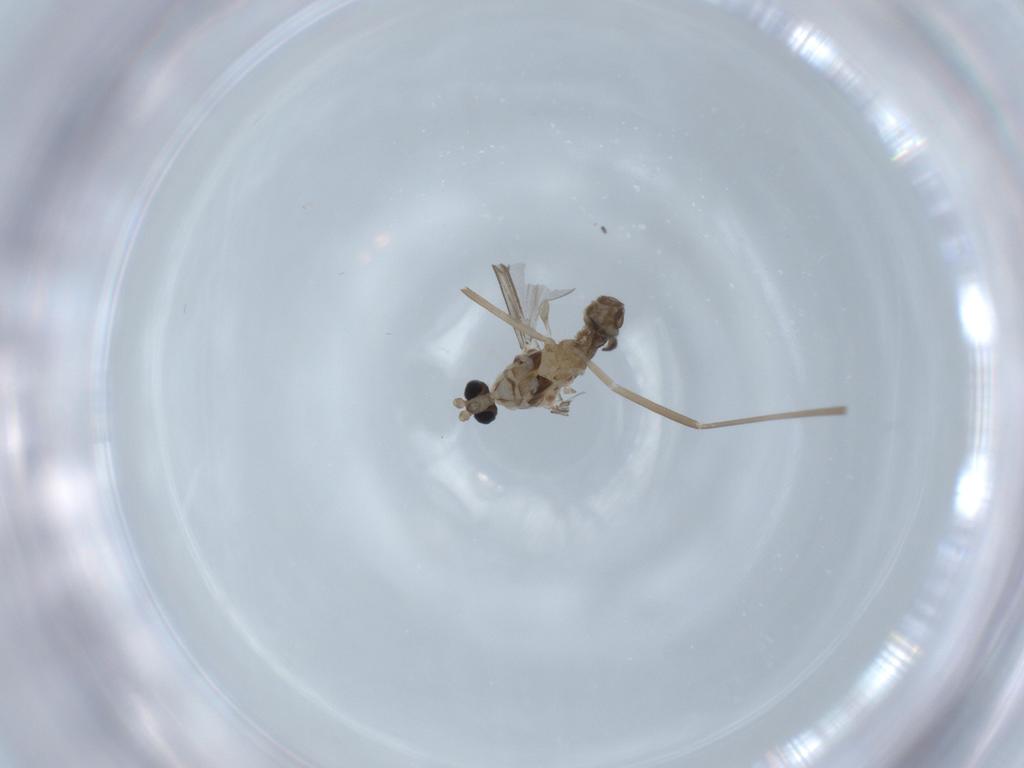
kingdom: Animalia
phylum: Arthropoda
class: Insecta
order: Diptera
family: Cecidomyiidae
